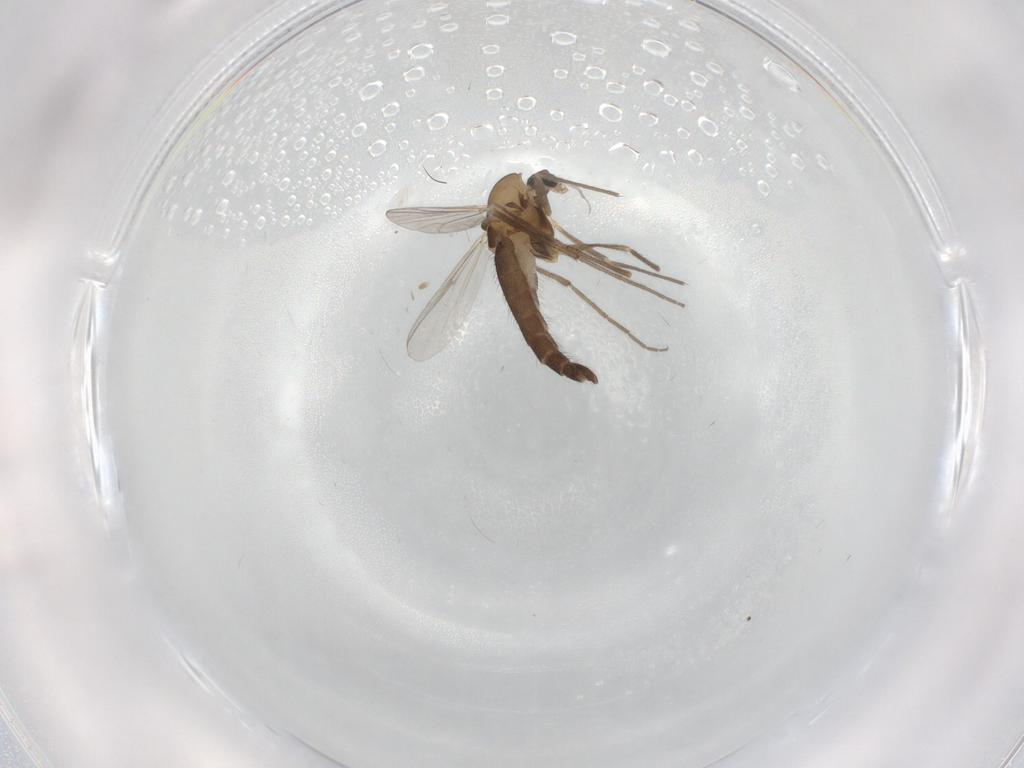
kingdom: Animalia
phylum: Arthropoda
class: Insecta
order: Diptera
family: Chironomidae
